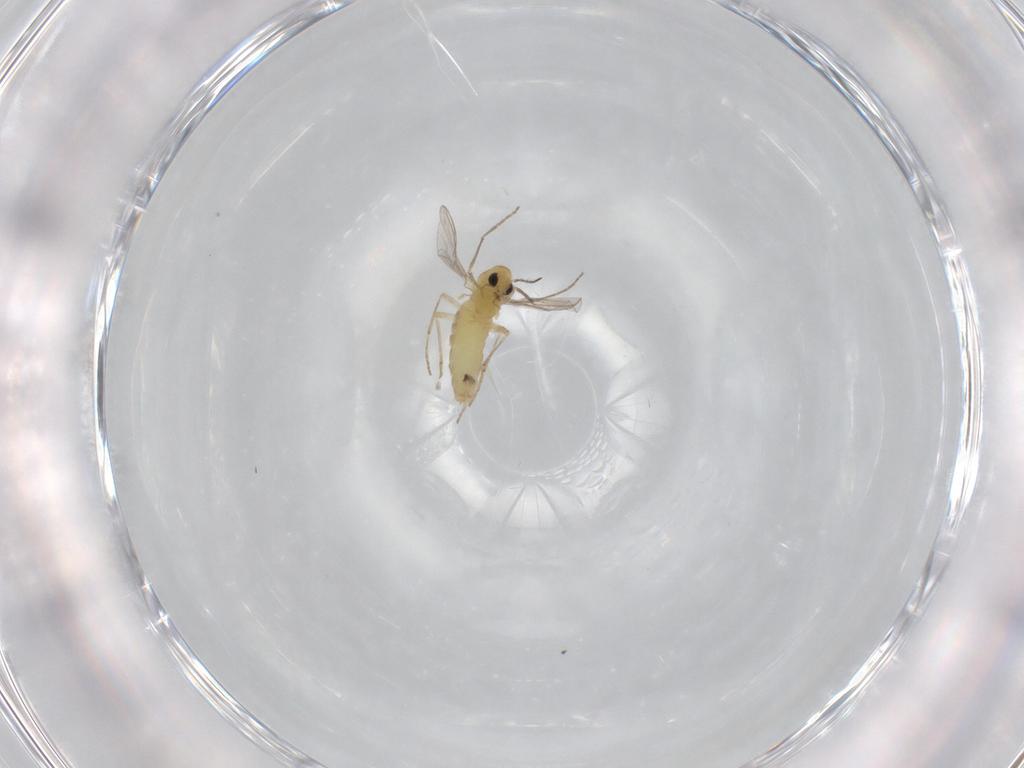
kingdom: Animalia
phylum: Arthropoda
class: Insecta
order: Diptera
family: Chironomidae
